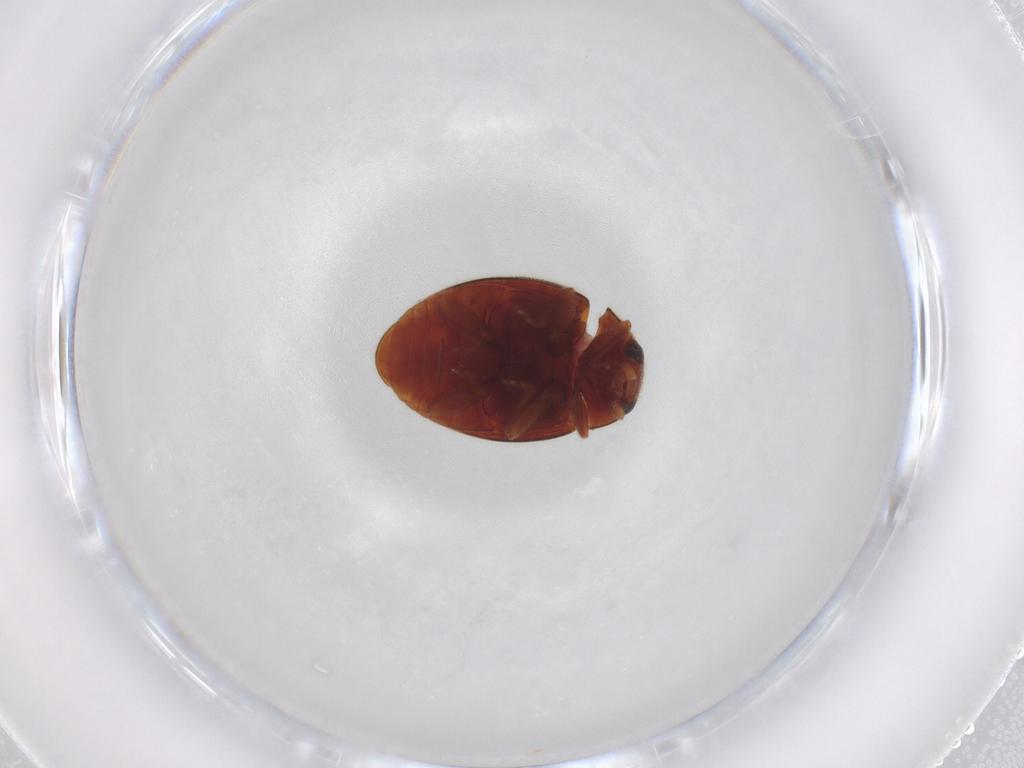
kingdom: Animalia
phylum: Arthropoda
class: Insecta
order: Coleoptera
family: Coccinellidae
